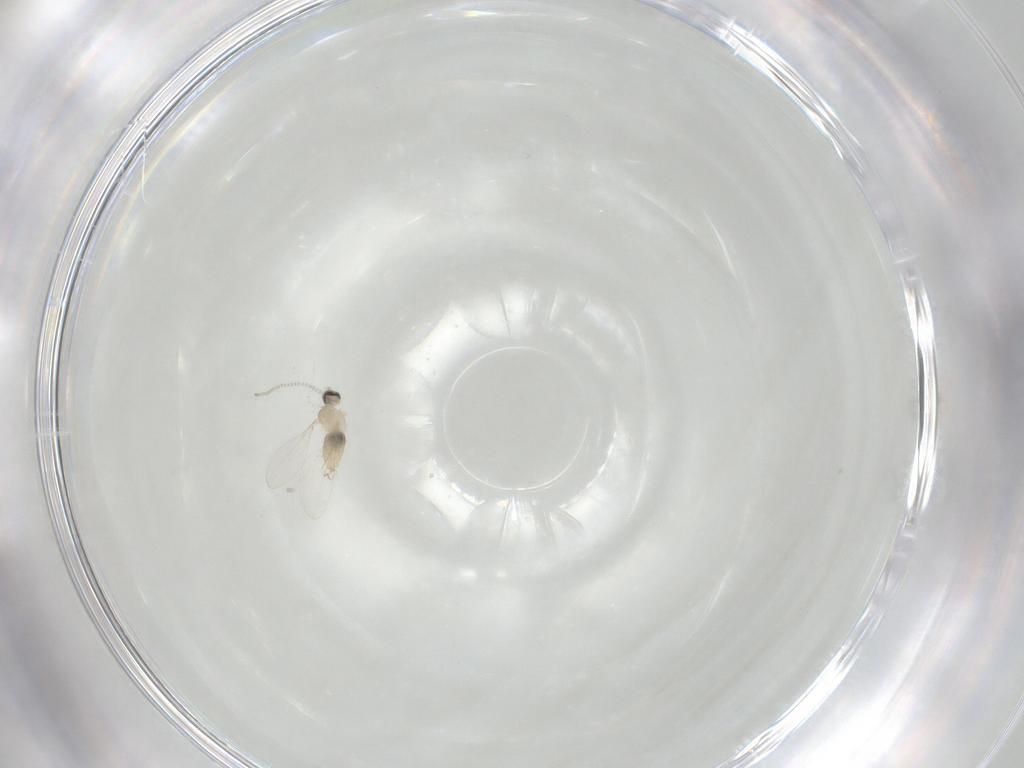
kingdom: Animalia
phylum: Arthropoda
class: Insecta
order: Diptera
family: Cecidomyiidae
